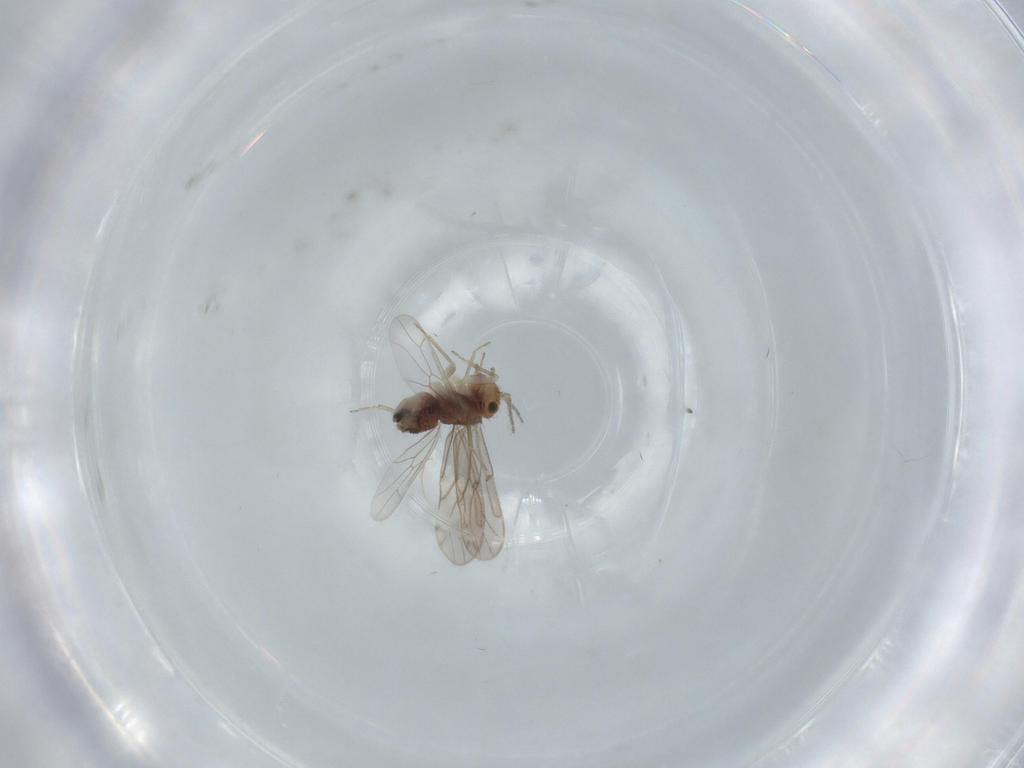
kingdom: Animalia
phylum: Arthropoda
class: Insecta
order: Psocodea
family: Ectopsocidae
